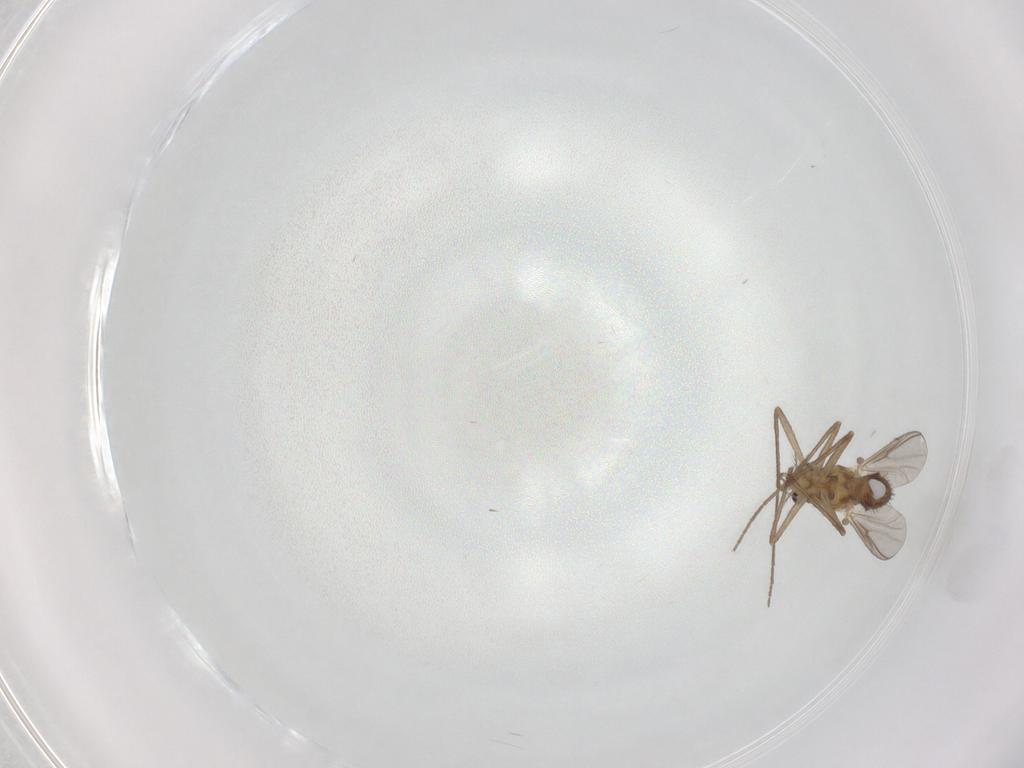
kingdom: Animalia
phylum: Arthropoda
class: Insecta
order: Diptera
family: Chironomidae
